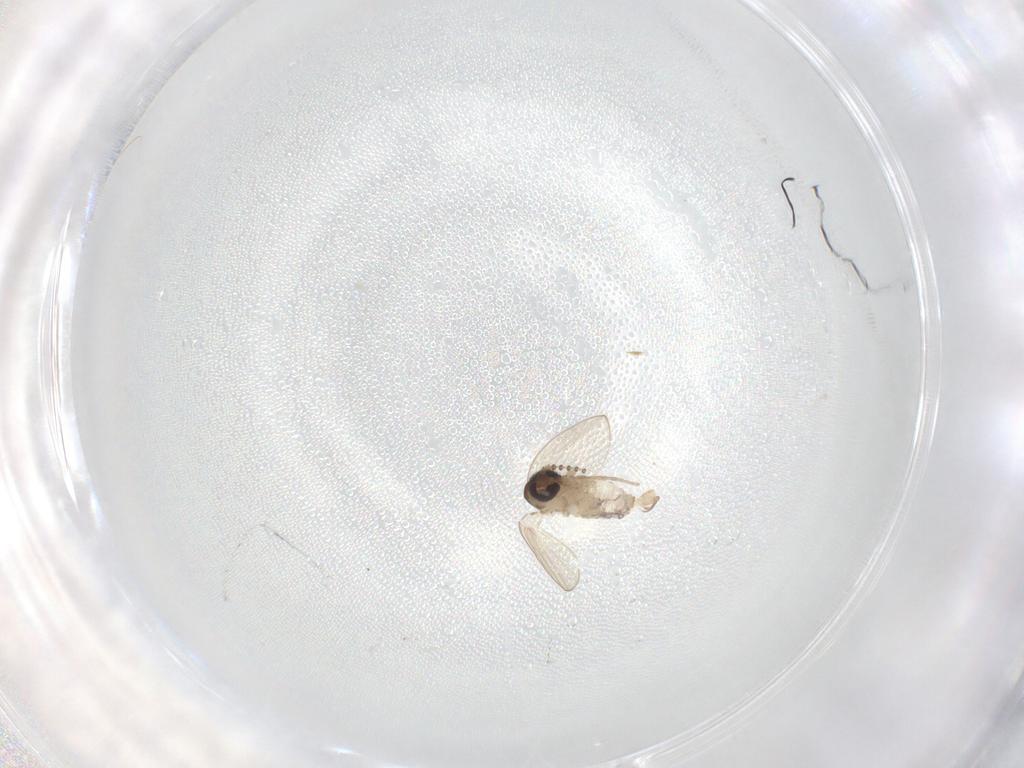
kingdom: Animalia
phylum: Arthropoda
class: Insecta
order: Diptera
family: Psychodidae
